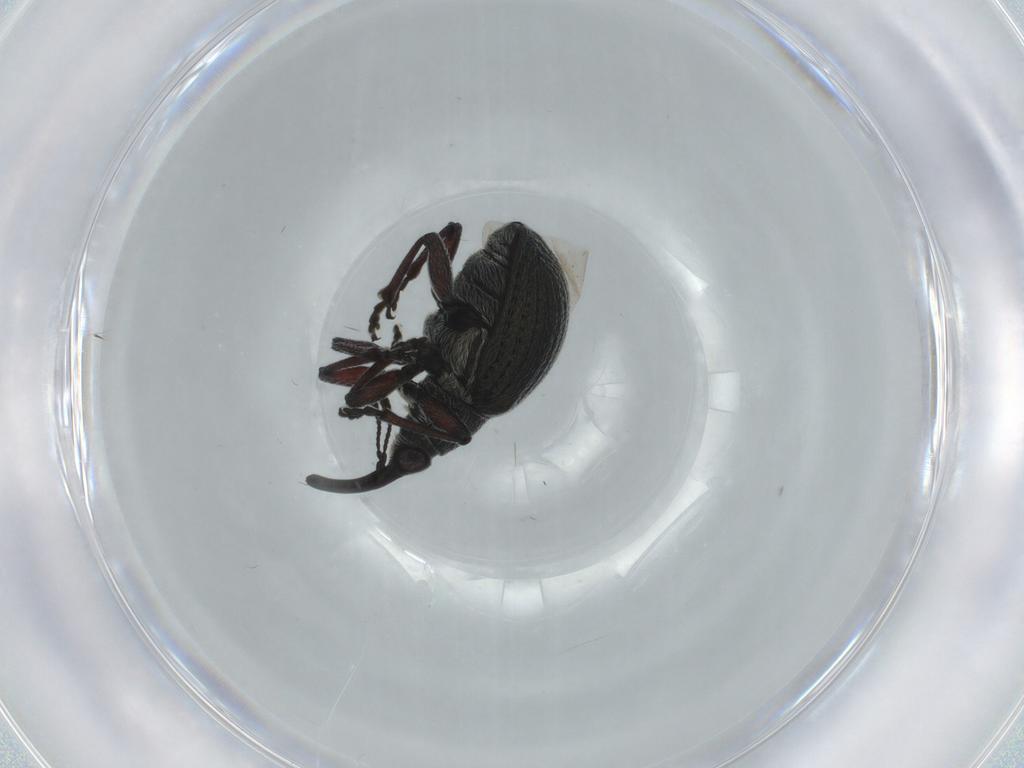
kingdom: Animalia
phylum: Arthropoda
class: Insecta
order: Coleoptera
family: Brentidae
